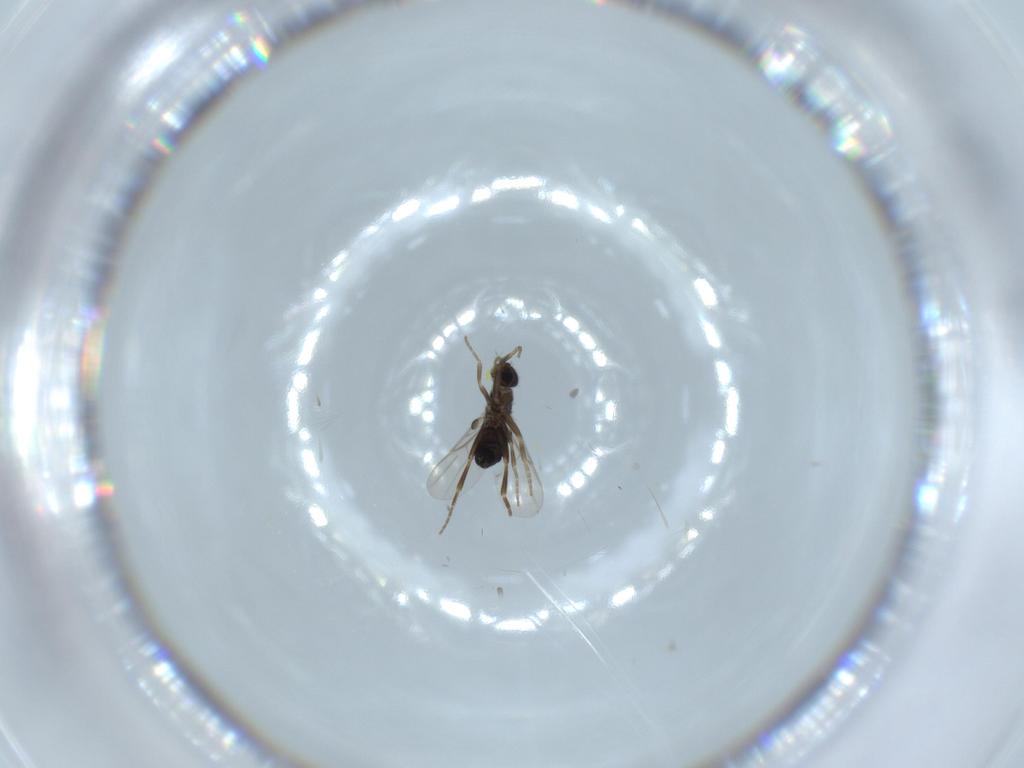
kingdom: Animalia
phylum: Arthropoda
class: Insecta
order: Diptera
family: Phoridae
